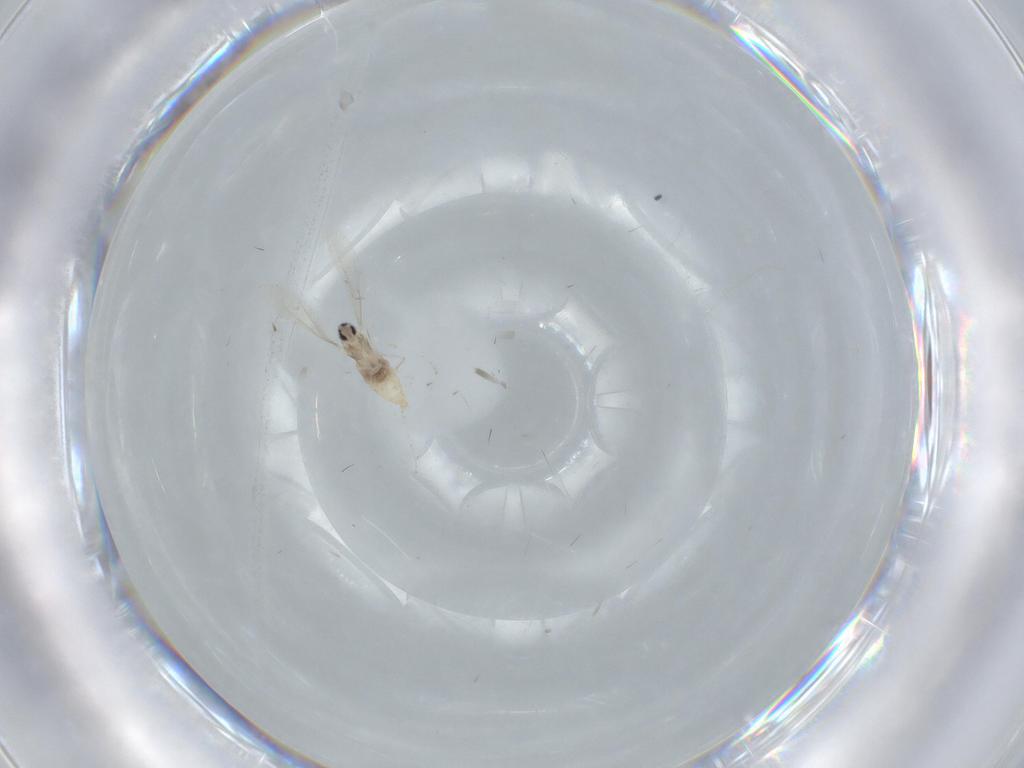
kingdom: Animalia
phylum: Arthropoda
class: Insecta
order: Diptera
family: Cecidomyiidae
